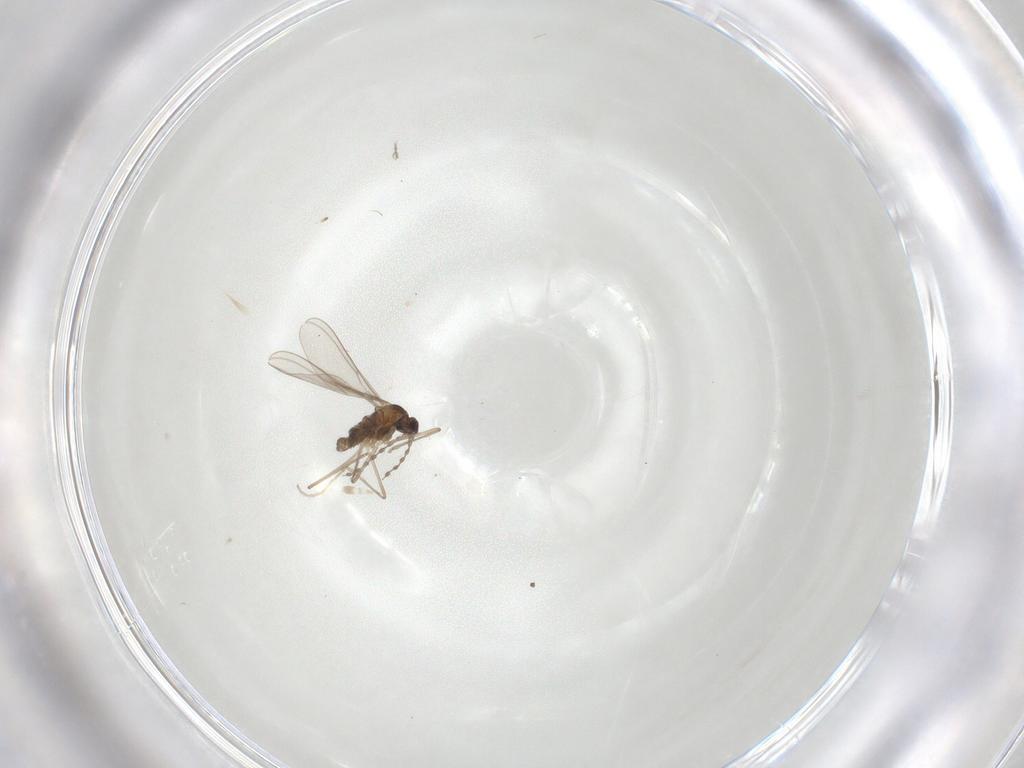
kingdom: Animalia
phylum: Arthropoda
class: Insecta
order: Diptera
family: Cecidomyiidae
